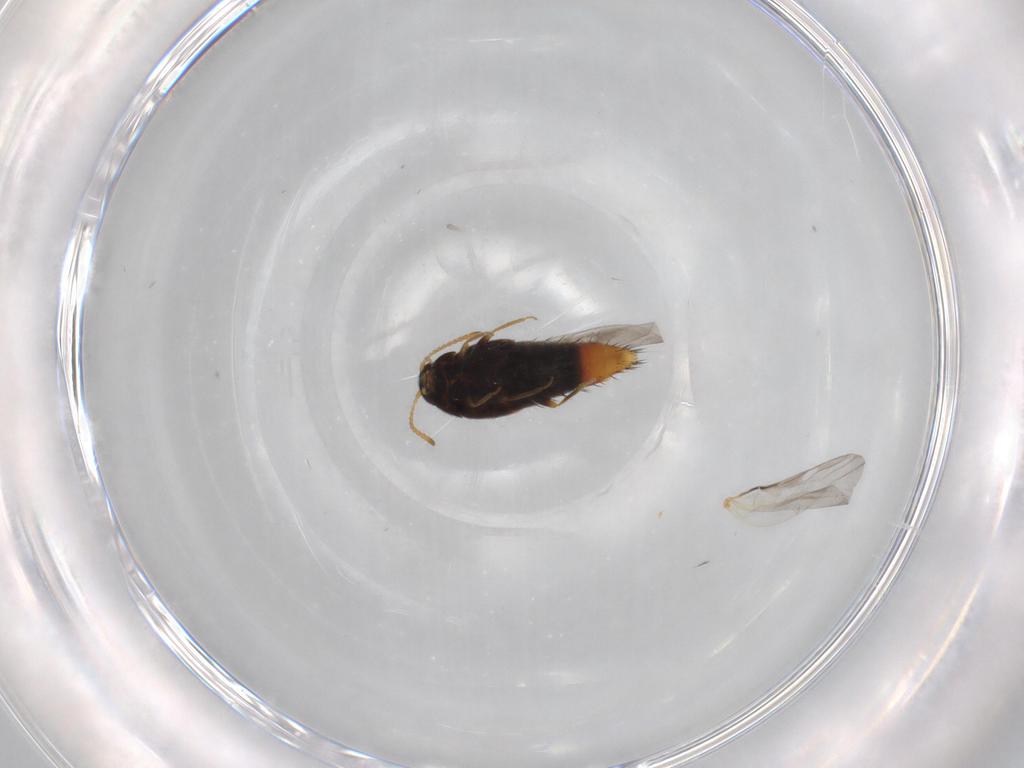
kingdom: Animalia
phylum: Arthropoda
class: Insecta
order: Coleoptera
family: Staphylinidae
